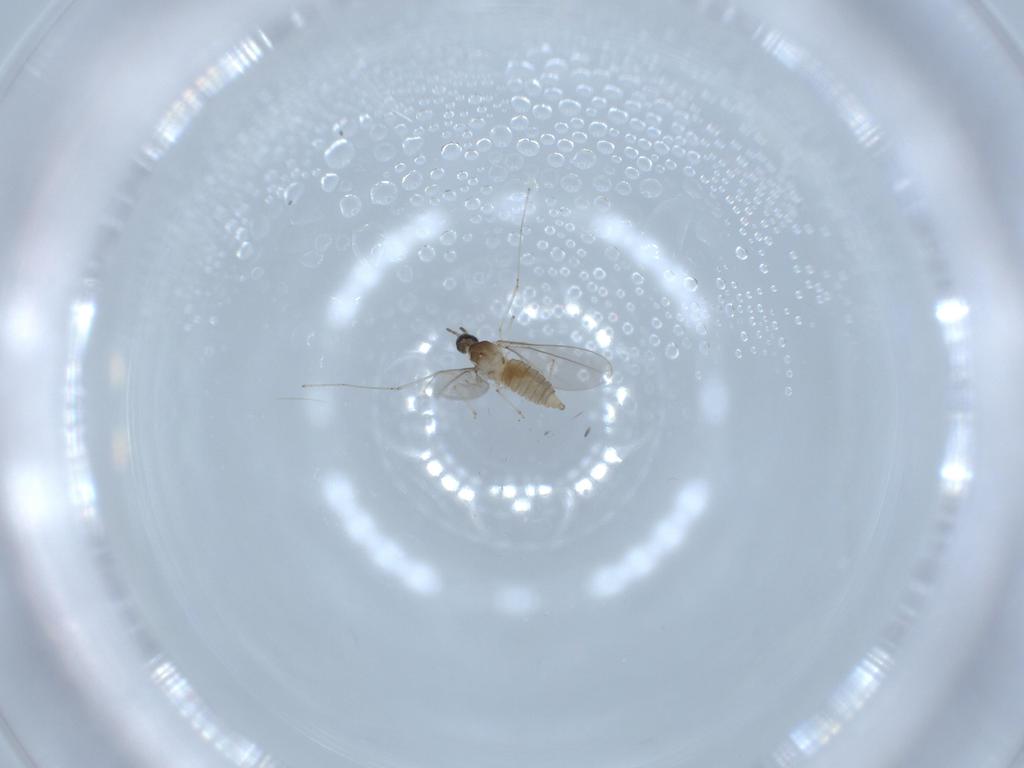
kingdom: Animalia
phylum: Arthropoda
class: Insecta
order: Diptera
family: Cecidomyiidae
